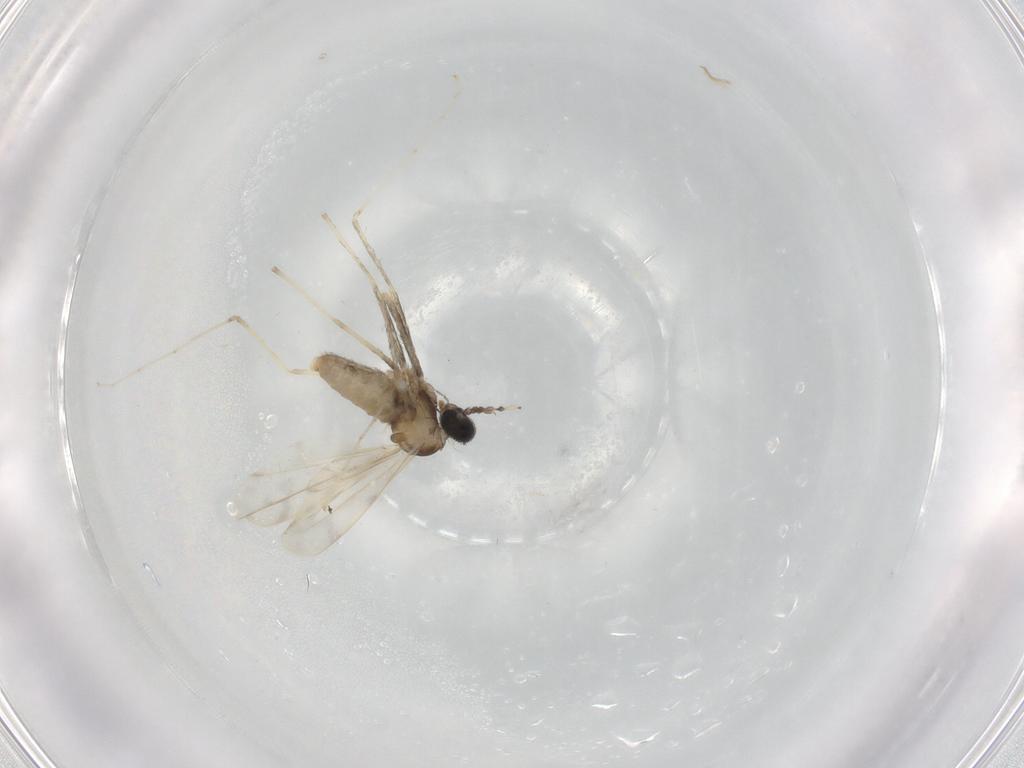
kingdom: Animalia
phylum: Arthropoda
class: Insecta
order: Diptera
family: Cecidomyiidae
